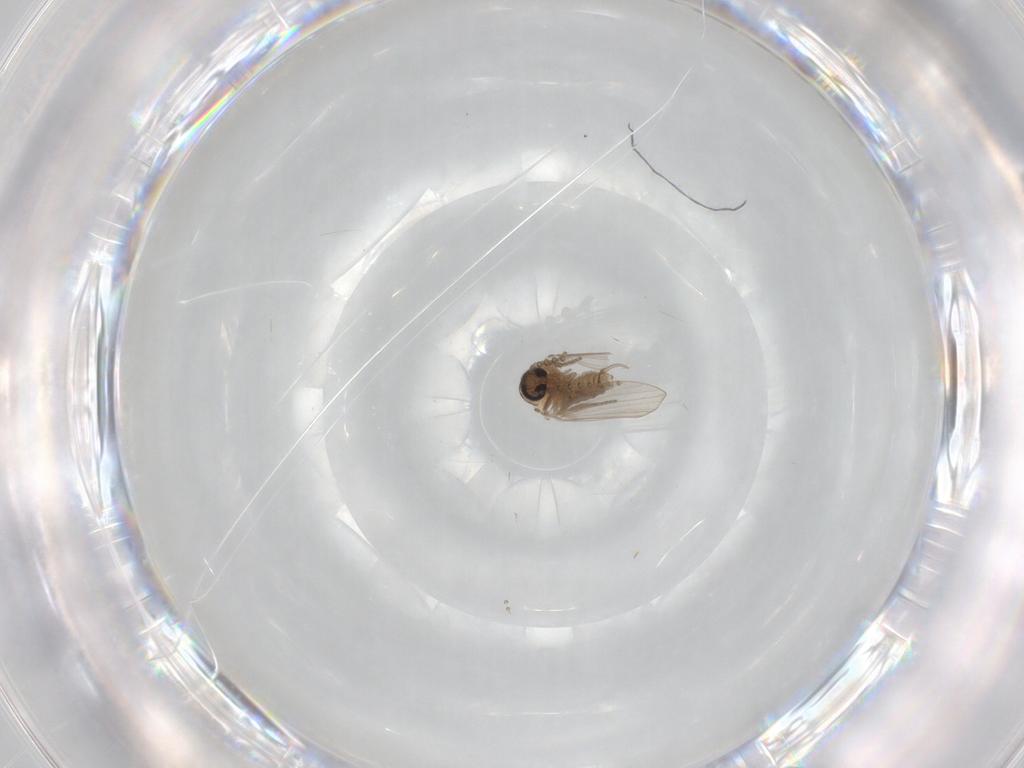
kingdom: Animalia
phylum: Arthropoda
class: Insecta
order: Diptera
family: Psychodidae
